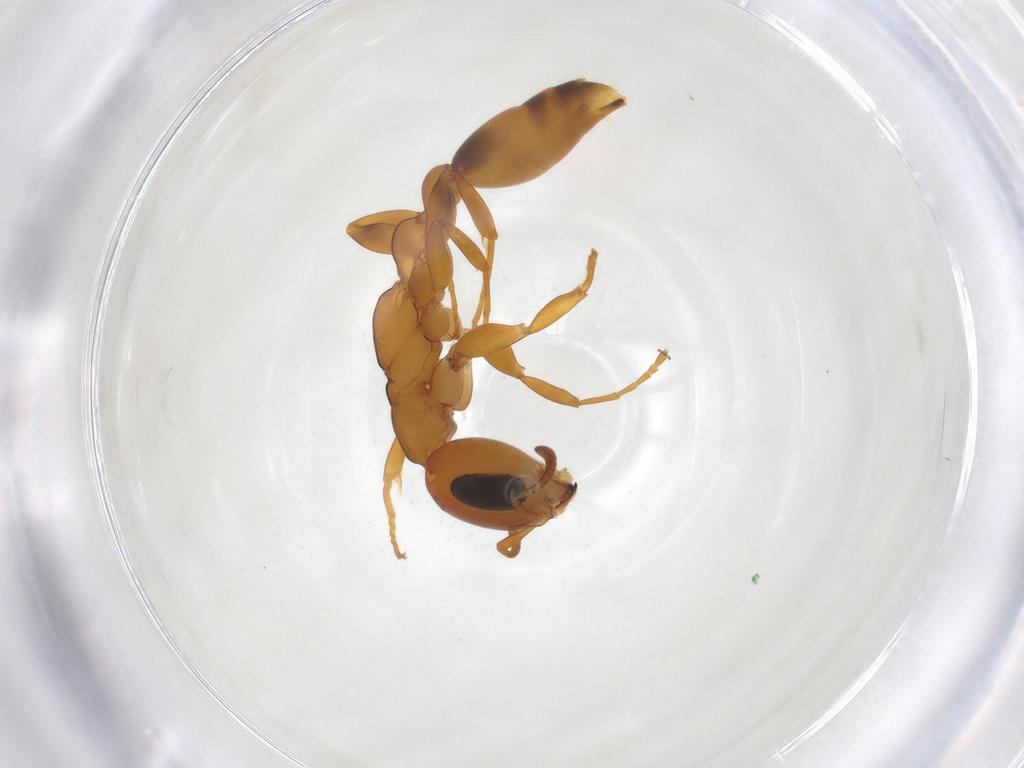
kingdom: Animalia
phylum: Arthropoda
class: Insecta
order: Hymenoptera
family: Formicidae
